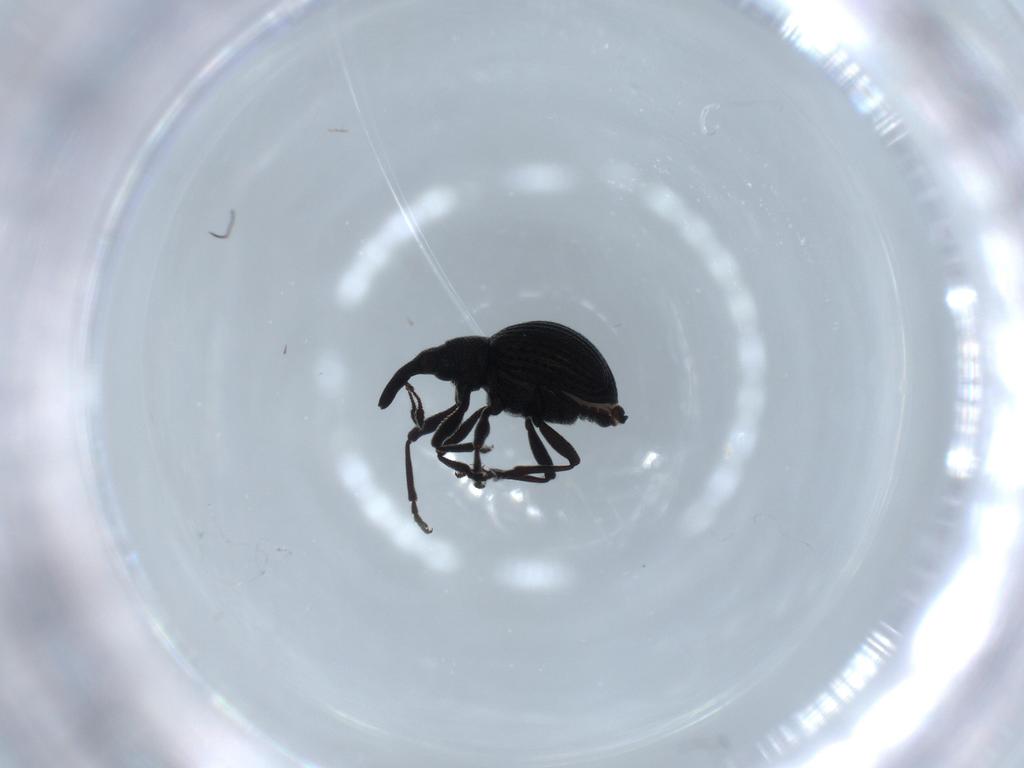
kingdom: Animalia
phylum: Arthropoda
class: Insecta
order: Coleoptera
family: Brentidae
